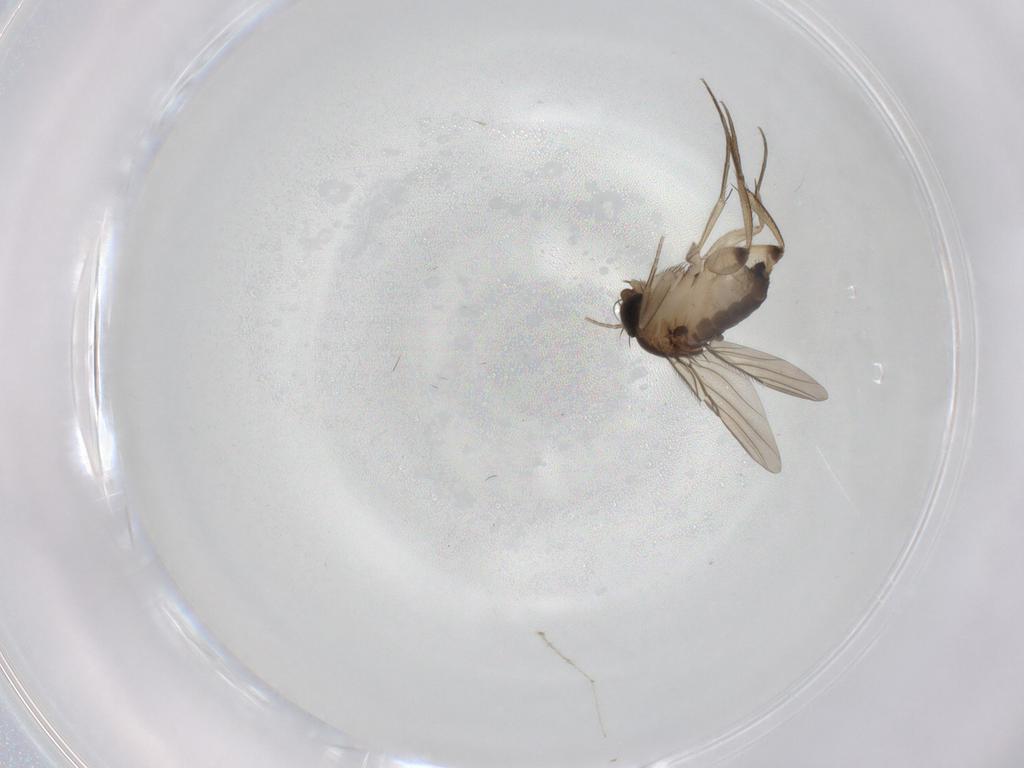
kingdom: Animalia
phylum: Arthropoda
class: Insecta
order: Diptera
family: Phoridae
